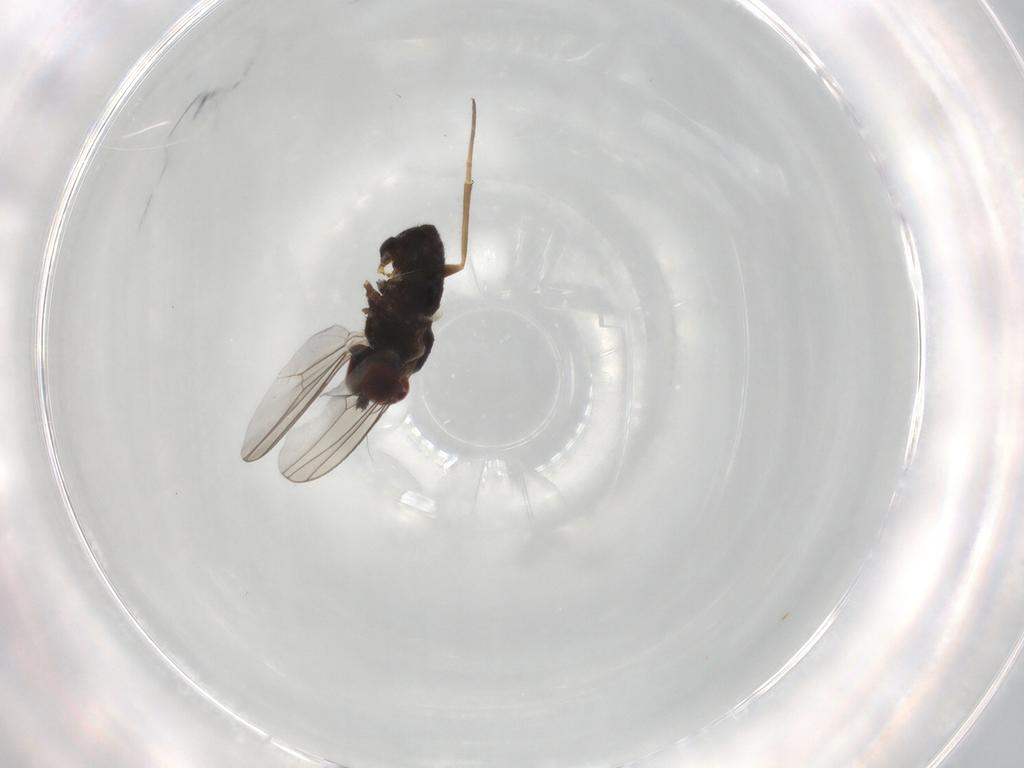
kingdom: Animalia
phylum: Arthropoda
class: Insecta
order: Diptera
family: Dolichopodidae
